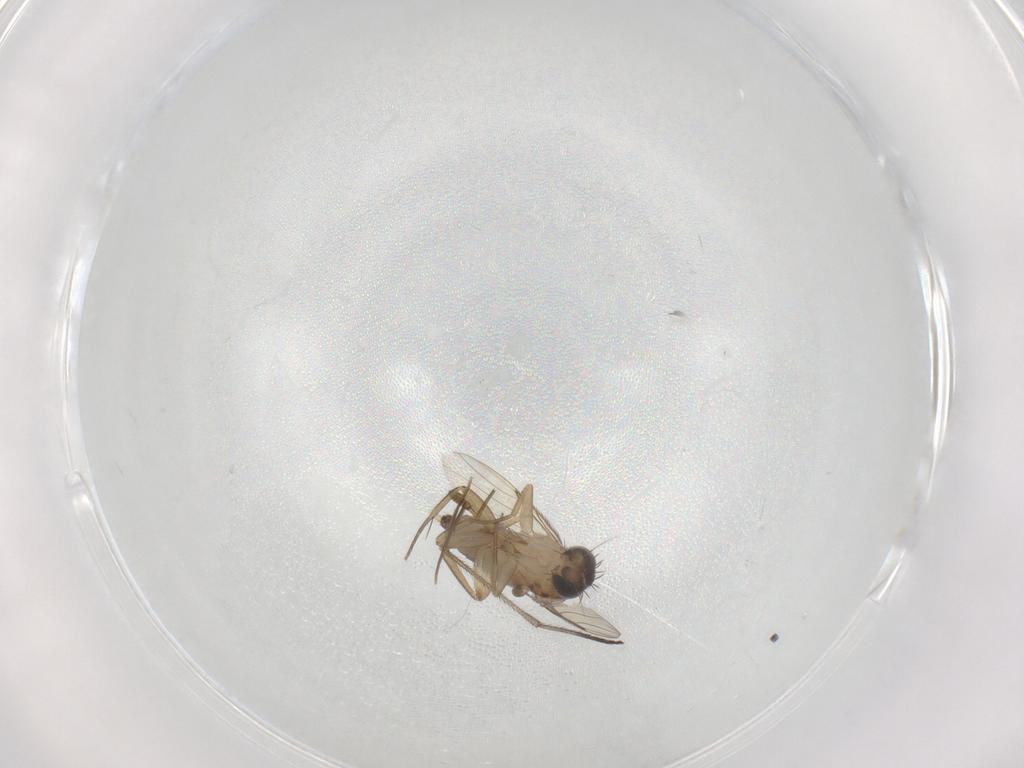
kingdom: Animalia
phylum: Arthropoda
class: Insecta
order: Diptera
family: Phoridae
